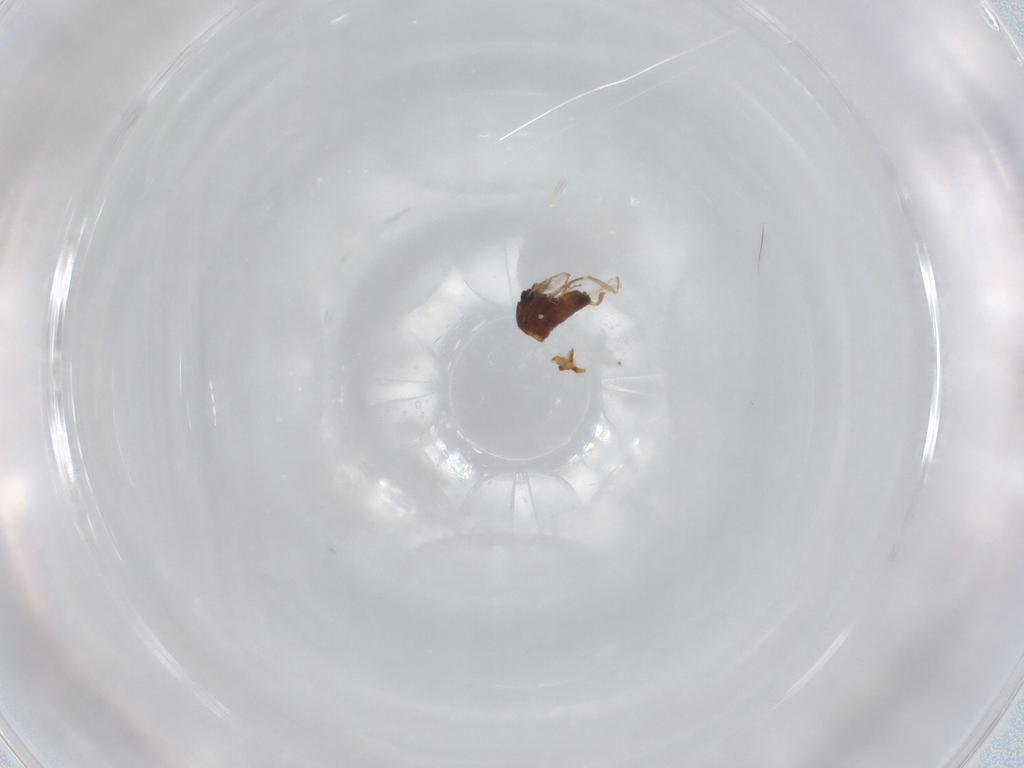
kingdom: Animalia
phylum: Arthropoda
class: Insecta
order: Diptera
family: Ceratopogonidae
